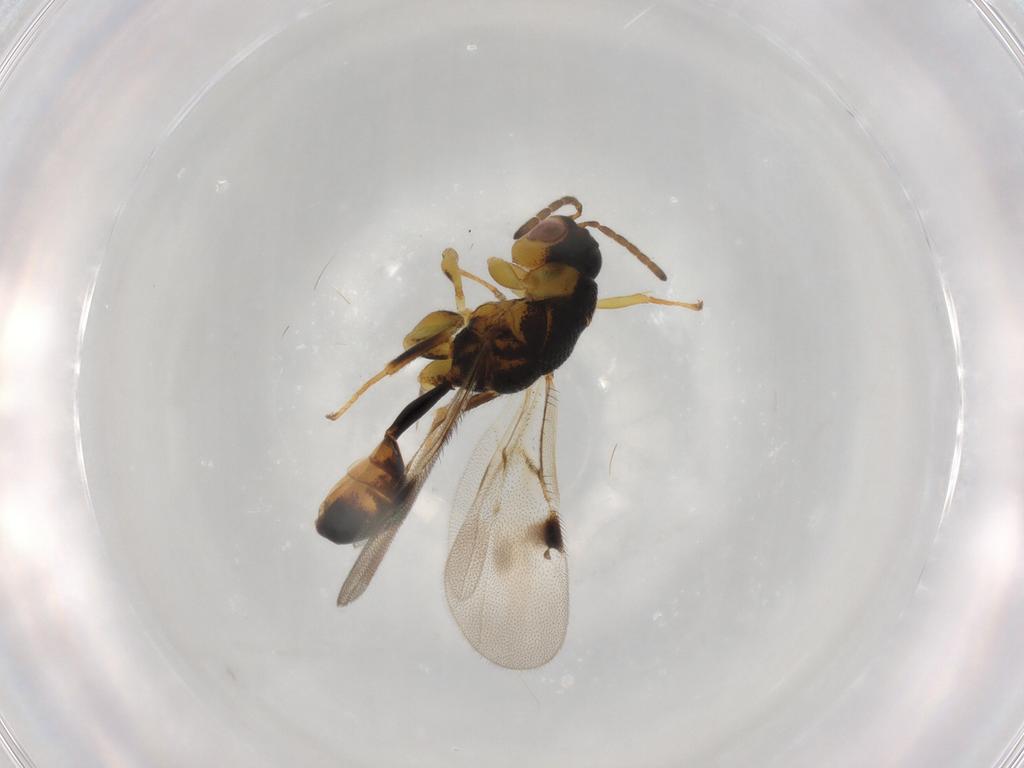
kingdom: Animalia
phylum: Arthropoda
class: Insecta
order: Hymenoptera
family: Eurytomidae
